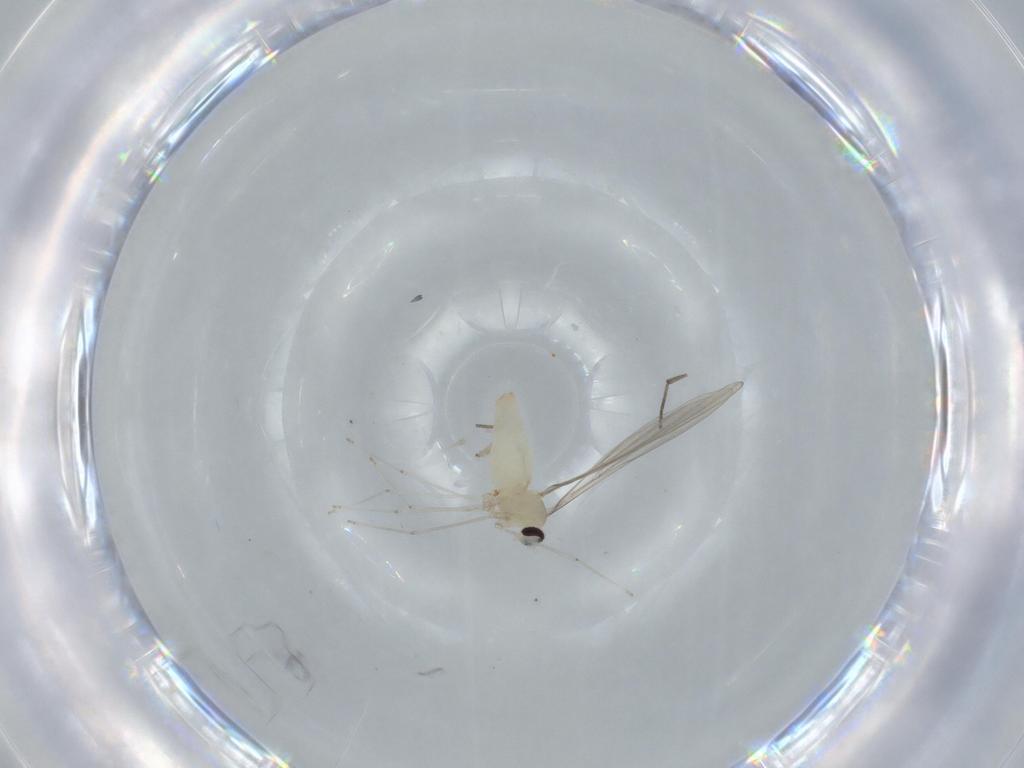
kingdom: Animalia
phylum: Arthropoda
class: Insecta
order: Diptera
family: Cecidomyiidae
